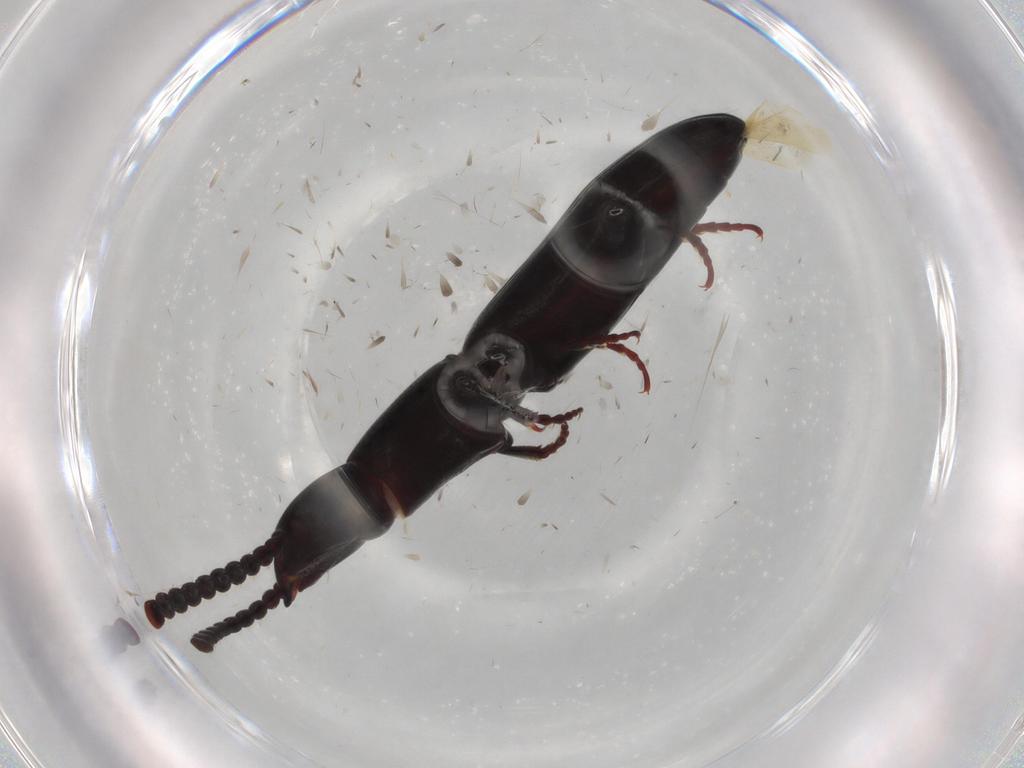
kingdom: Animalia
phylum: Arthropoda
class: Insecta
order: Coleoptera
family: Passandridae
